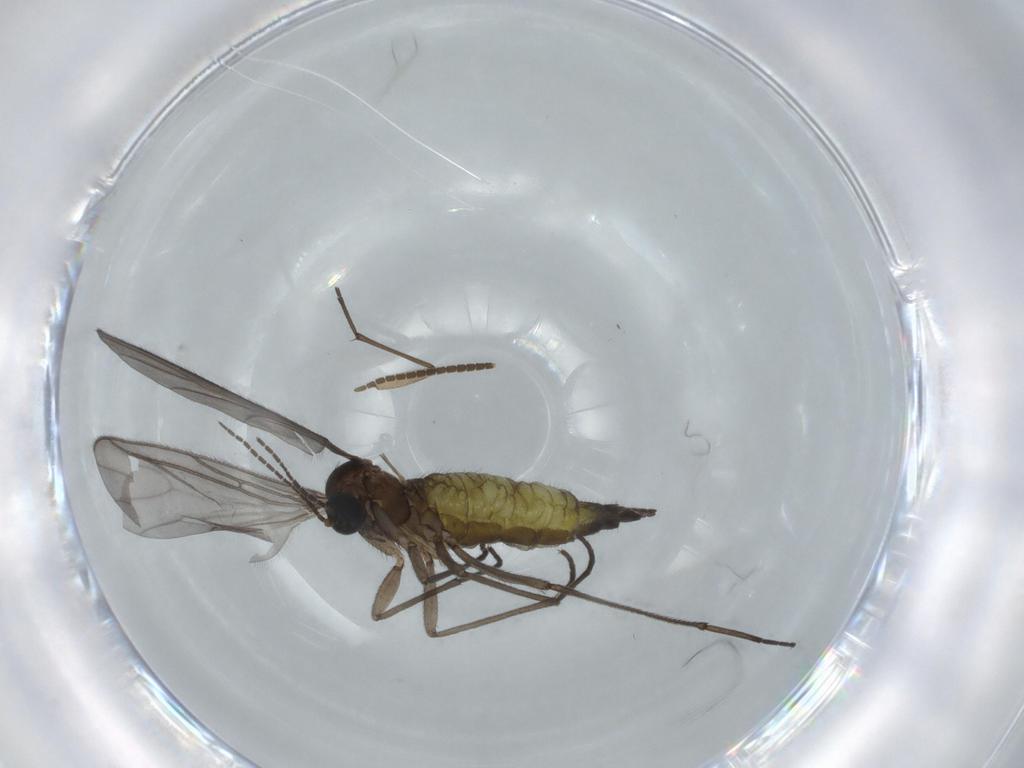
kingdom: Animalia
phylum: Arthropoda
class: Insecta
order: Diptera
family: Sciaridae
